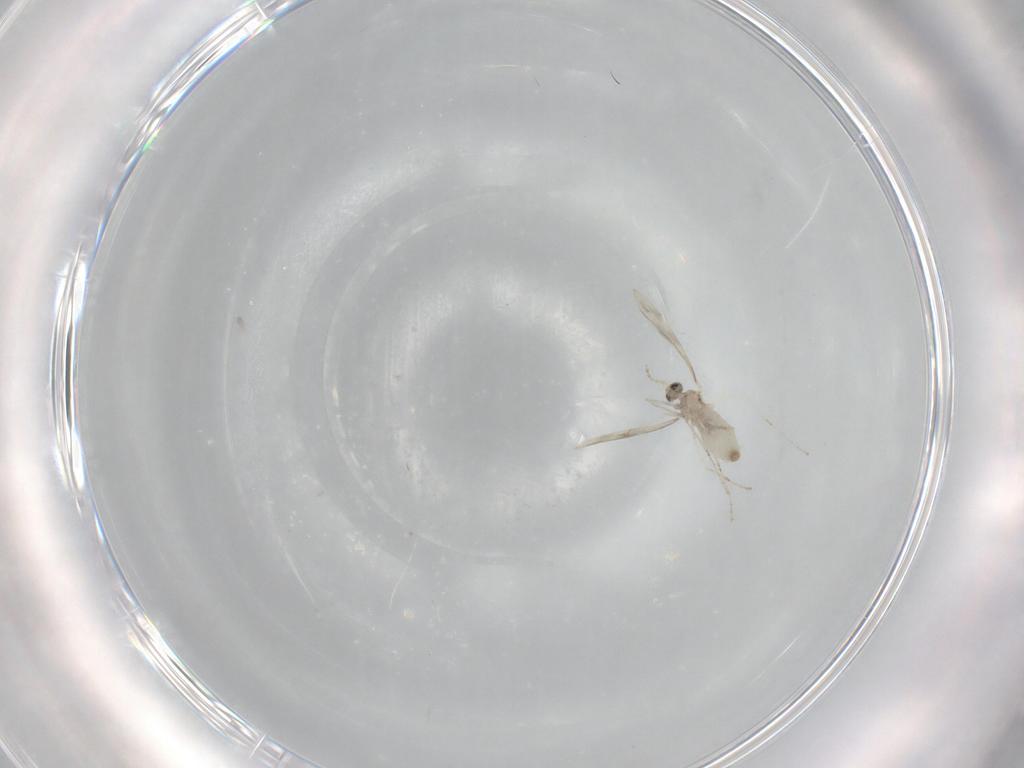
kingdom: Animalia
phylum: Arthropoda
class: Insecta
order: Diptera
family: Cecidomyiidae
